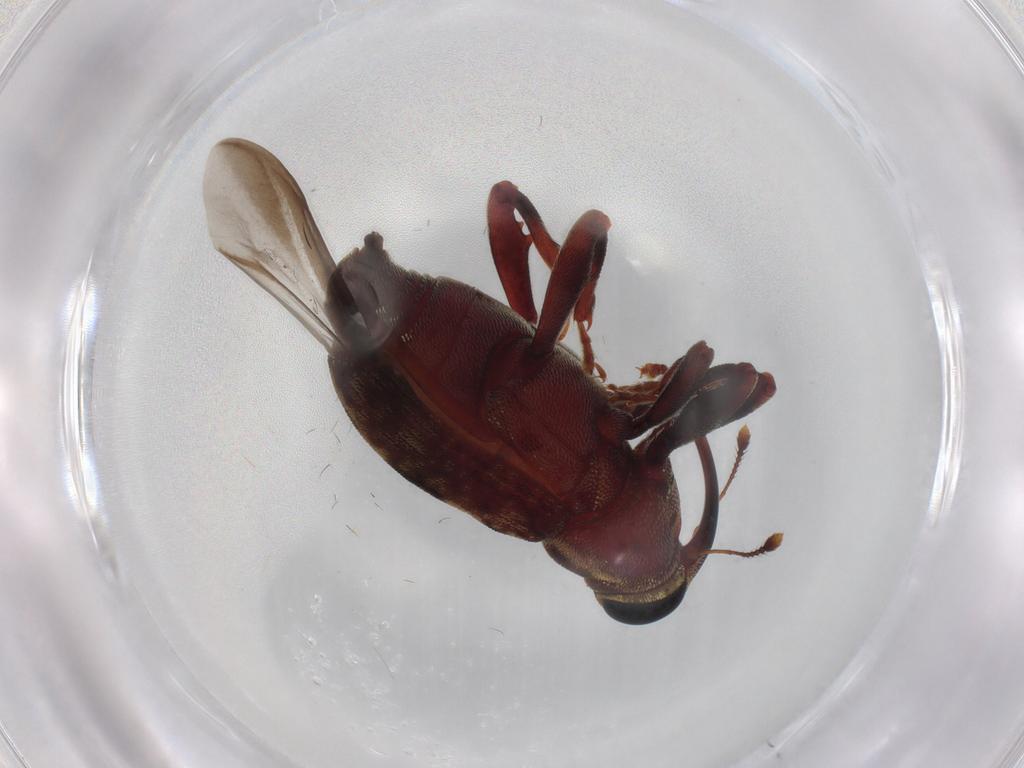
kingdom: Animalia
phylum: Arthropoda
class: Insecta
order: Coleoptera
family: Curculionidae
